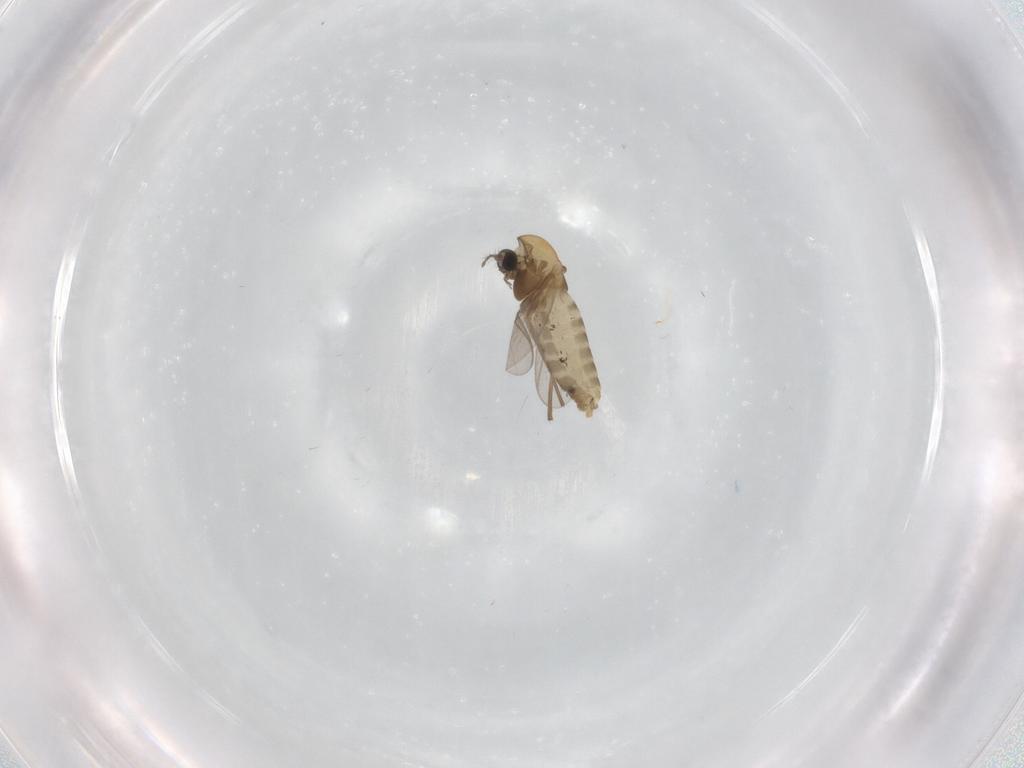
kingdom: Animalia
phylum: Arthropoda
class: Insecta
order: Diptera
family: Chironomidae
